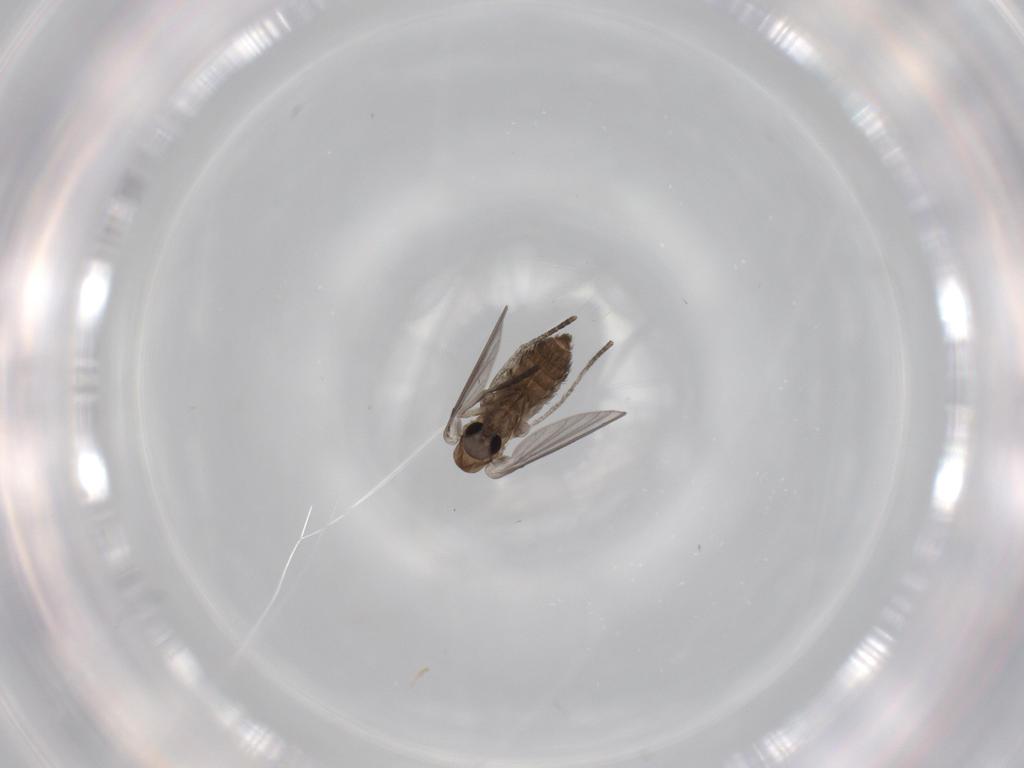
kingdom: Animalia
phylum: Arthropoda
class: Insecta
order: Diptera
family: Psychodidae
